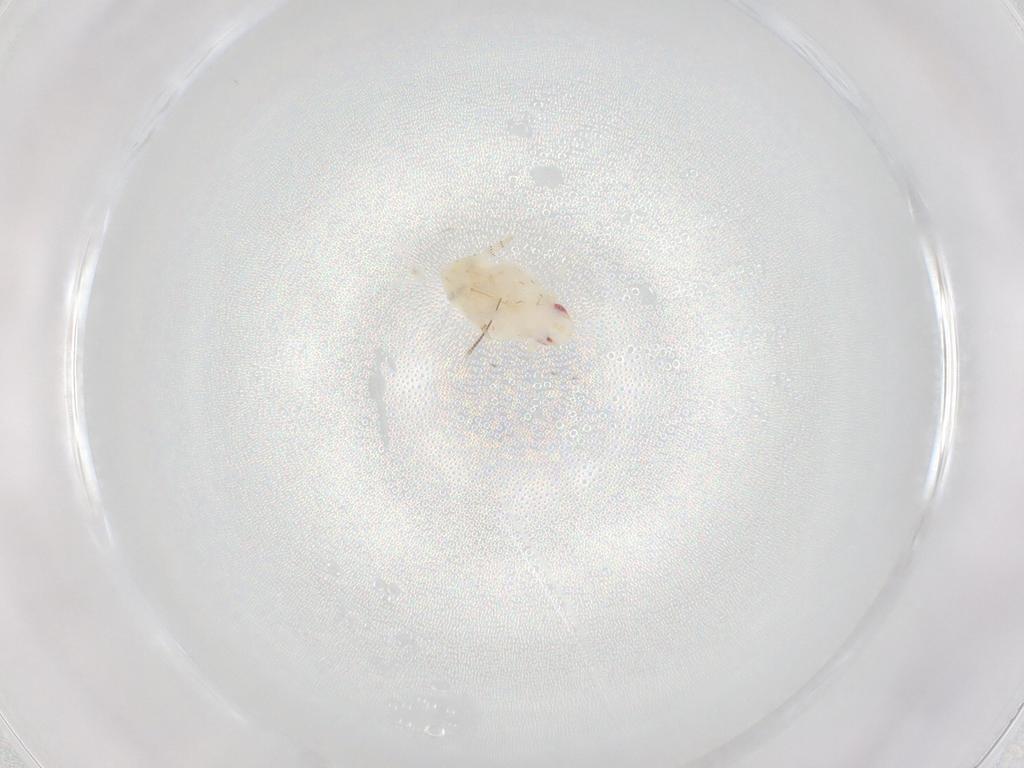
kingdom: Animalia
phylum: Arthropoda
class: Insecta
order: Hemiptera
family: Flatidae
